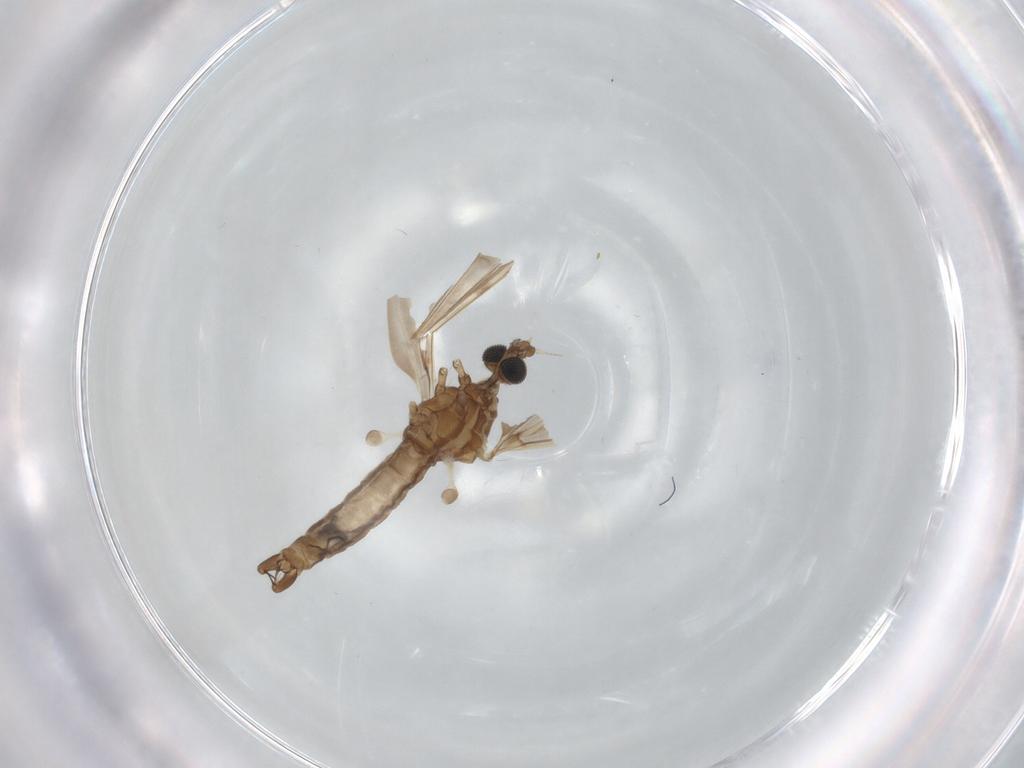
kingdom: Animalia
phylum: Arthropoda
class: Insecta
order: Diptera
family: Limoniidae
